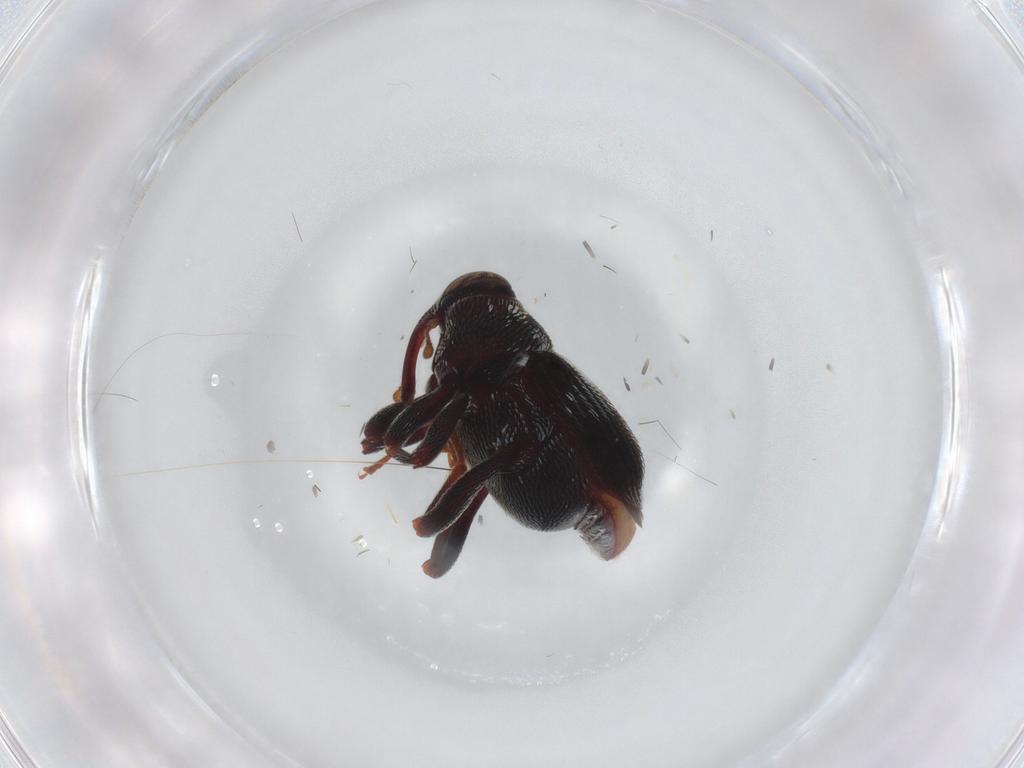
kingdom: Animalia
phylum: Arthropoda
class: Insecta
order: Coleoptera
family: Curculionidae
